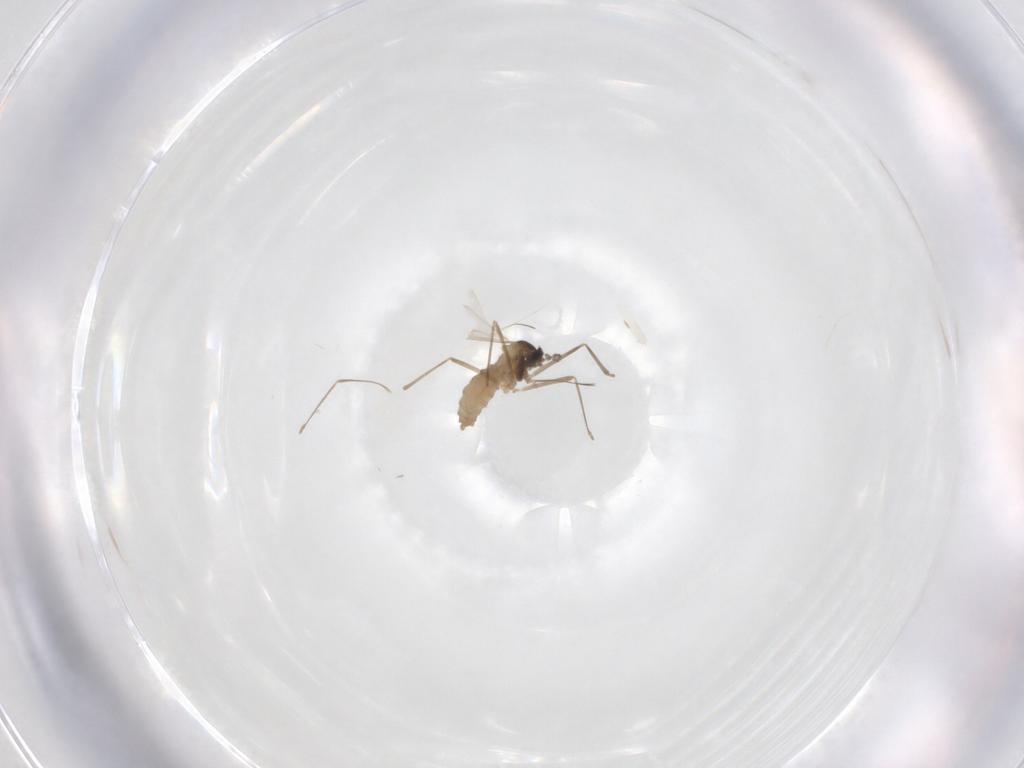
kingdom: Animalia
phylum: Arthropoda
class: Insecta
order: Diptera
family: Cecidomyiidae
